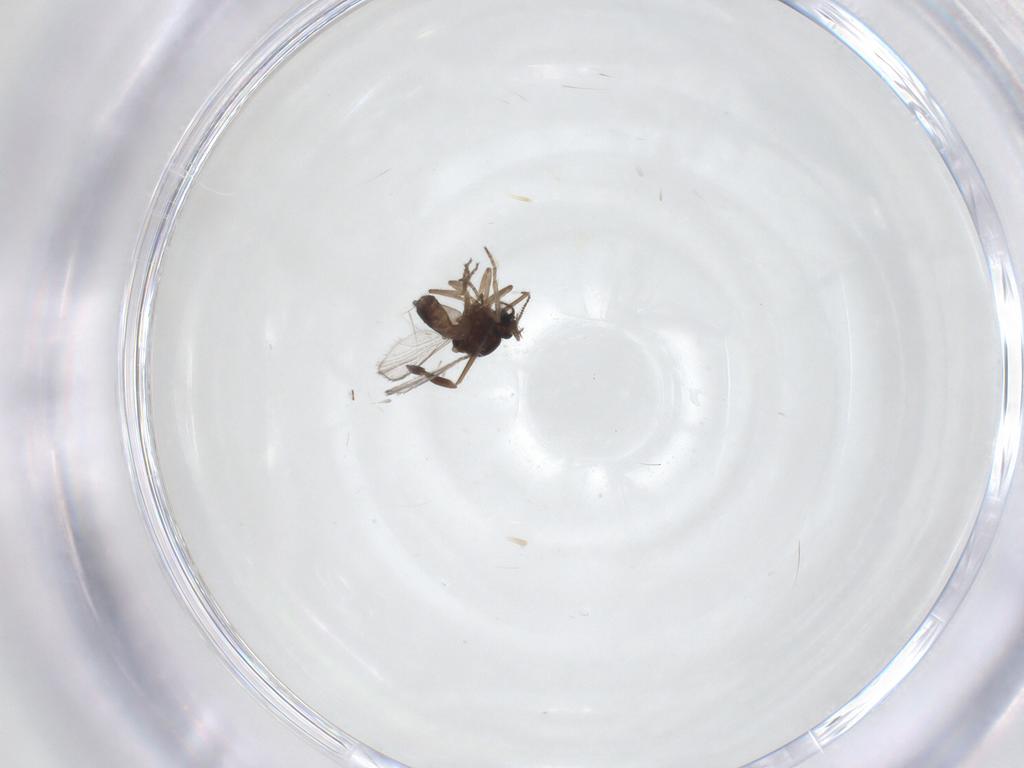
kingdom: Animalia
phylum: Arthropoda
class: Insecta
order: Diptera
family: Ceratopogonidae
